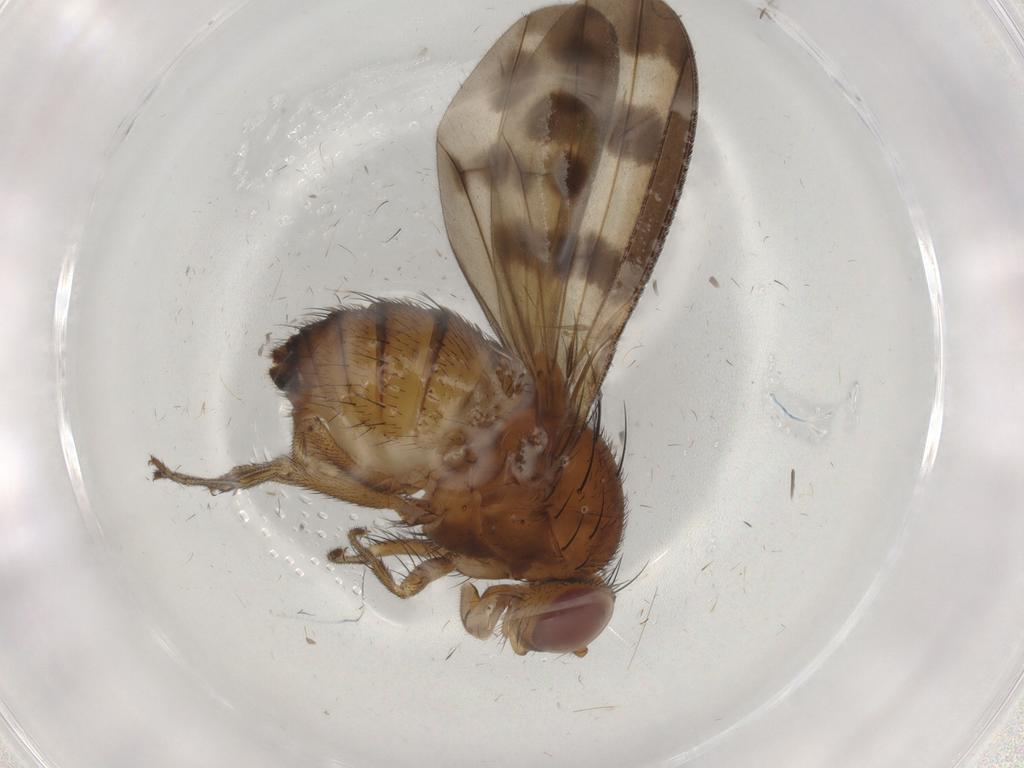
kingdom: Animalia
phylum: Arthropoda
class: Insecta
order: Diptera
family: Cecidomyiidae
